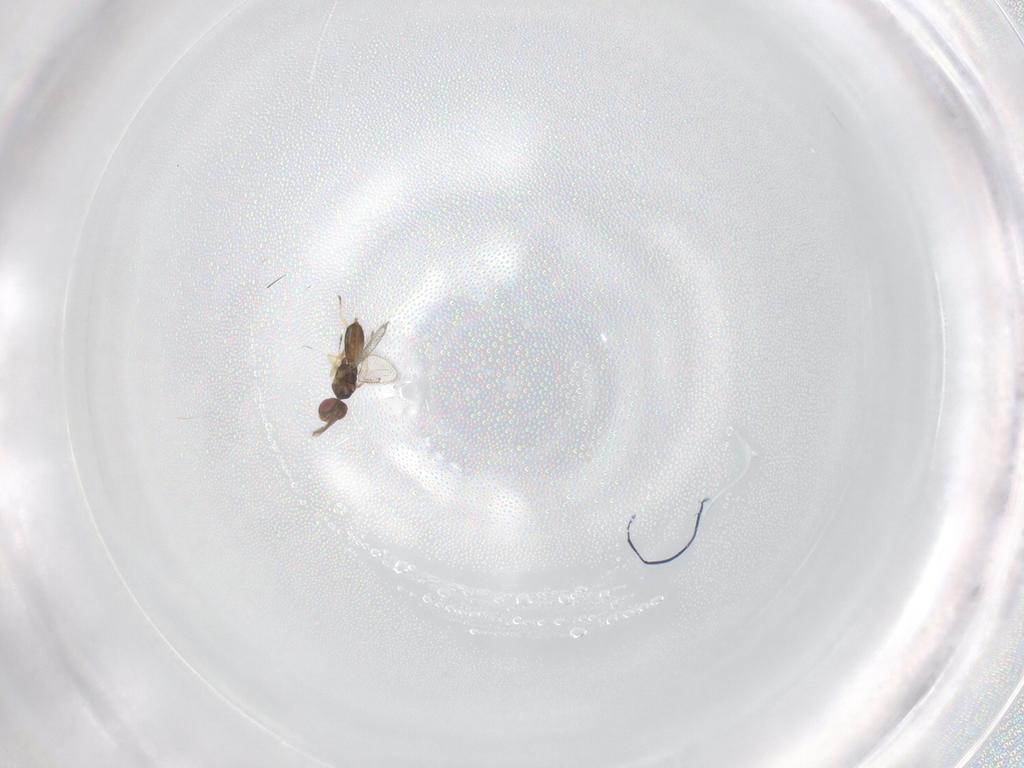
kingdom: Animalia
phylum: Arthropoda
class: Insecta
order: Hymenoptera
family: Eulophidae
